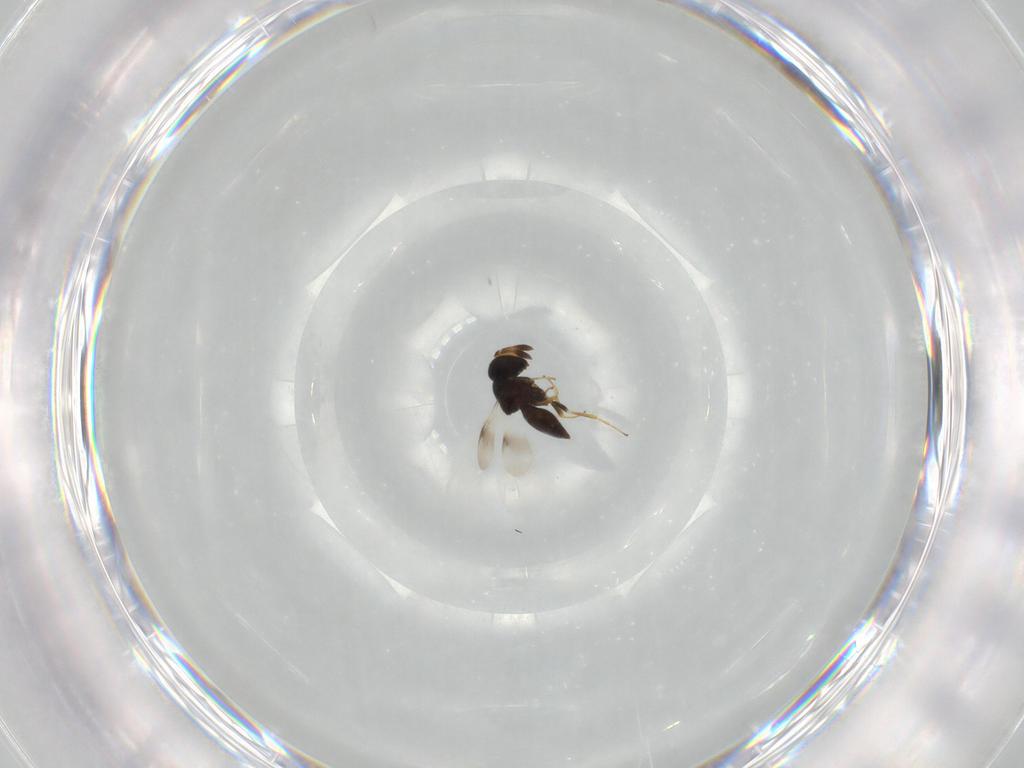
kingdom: Animalia
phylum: Arthropoda
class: Insecta
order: Hymenoptera
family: Scelionidae
